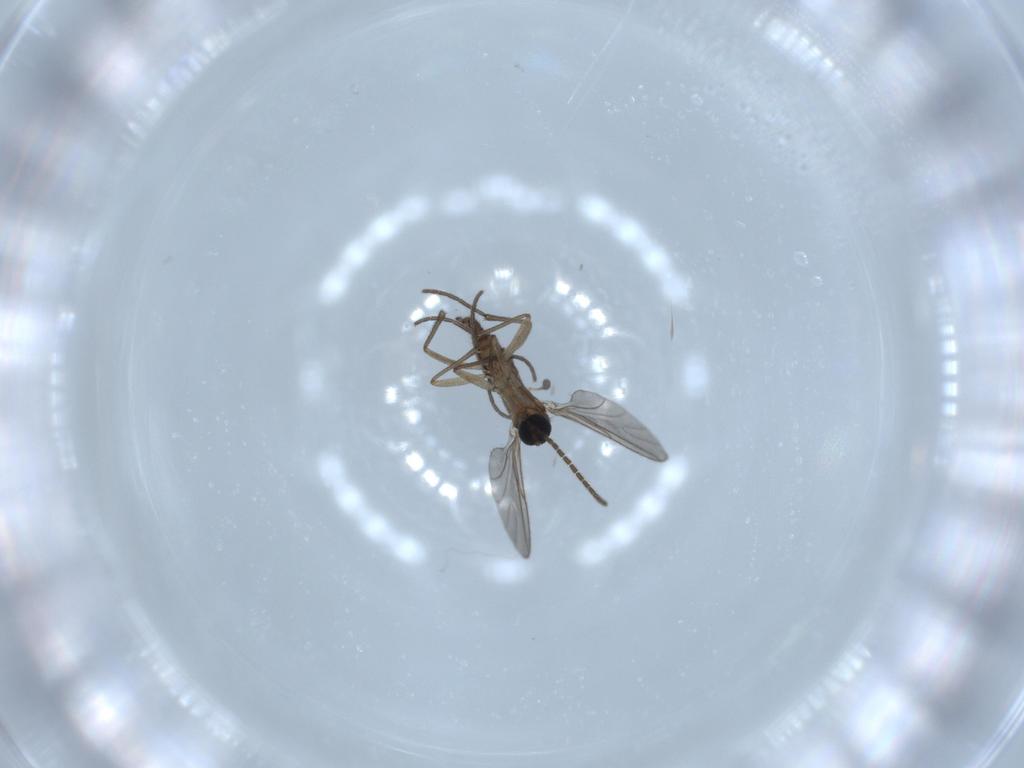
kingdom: Animalia
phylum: Arthropoda
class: Insecta
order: Diptera
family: Sciaridae
